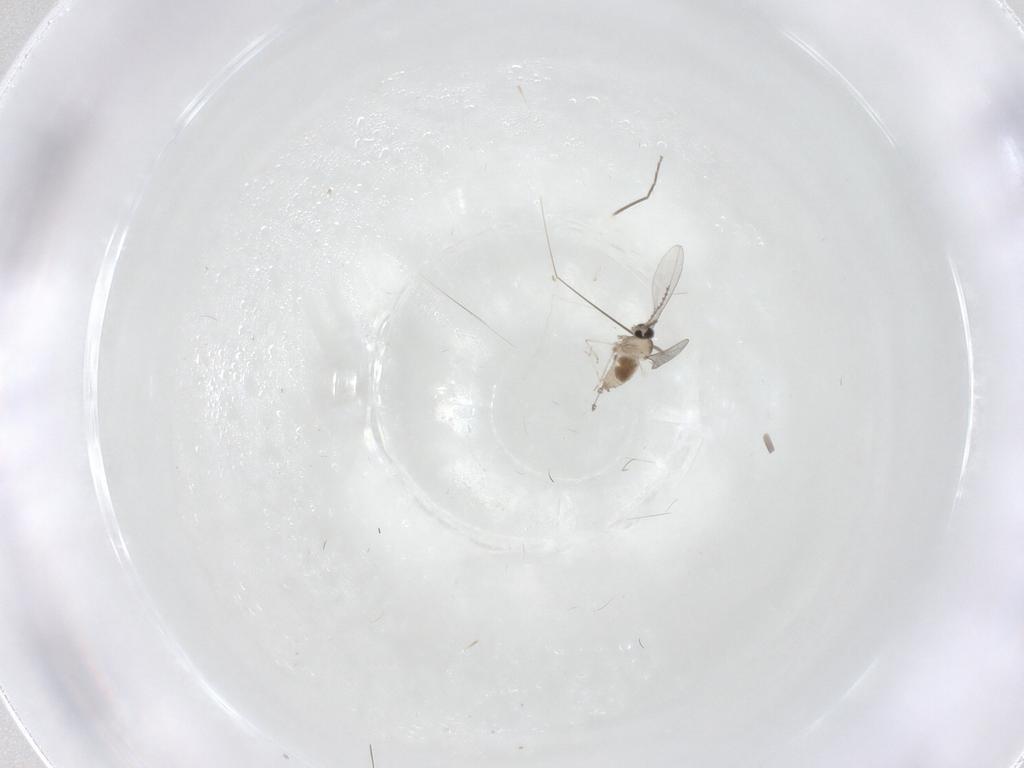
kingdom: Animalia
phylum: Arthropoda
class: Insecta
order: Diptera
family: Cecidomyiidae
